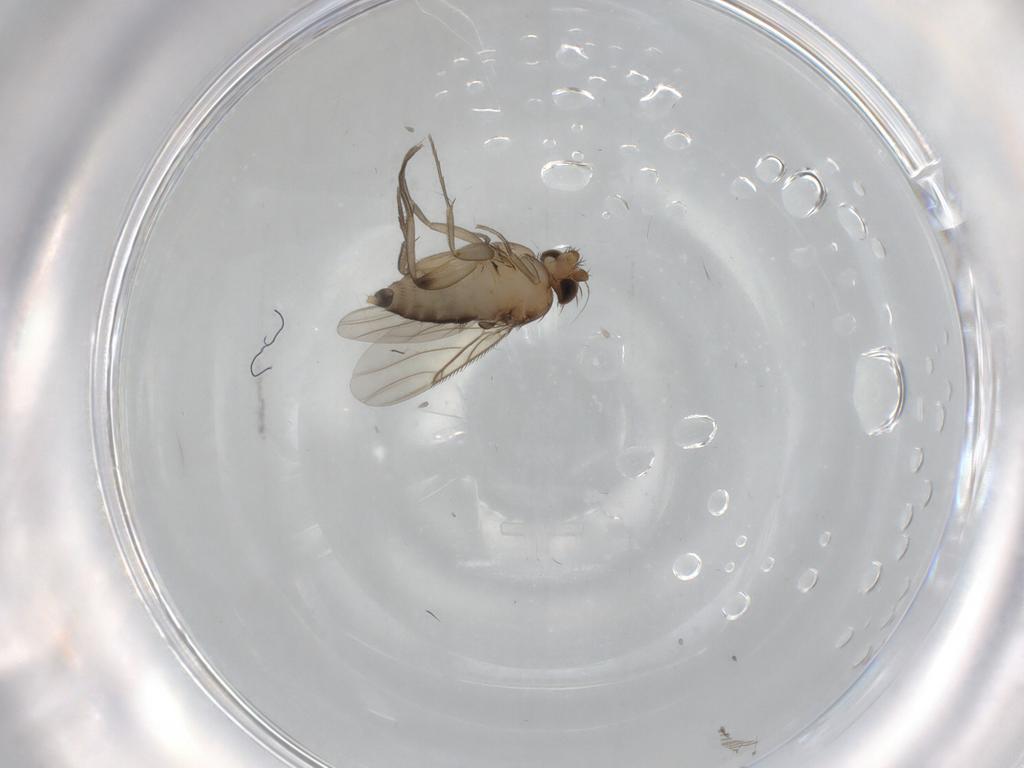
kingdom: Animalia
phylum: Arthropoda
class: Insecta
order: Diptera
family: Phoridae
